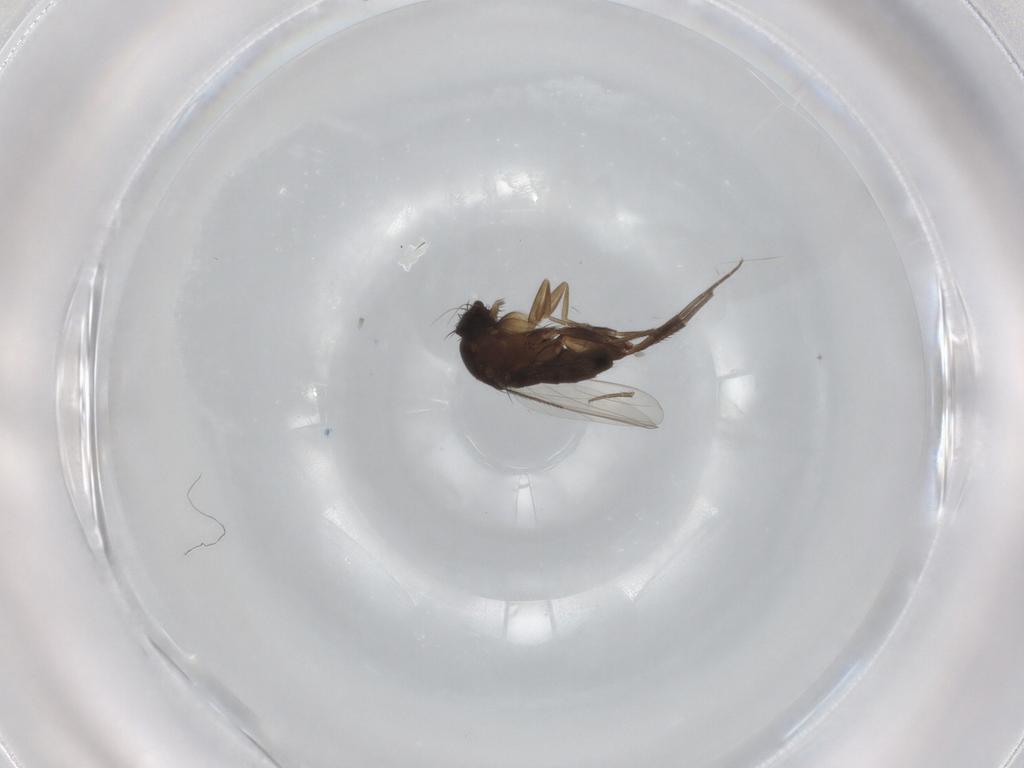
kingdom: Animalia
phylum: Arthropoda
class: Insecta
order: Diptera
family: Phoridae
